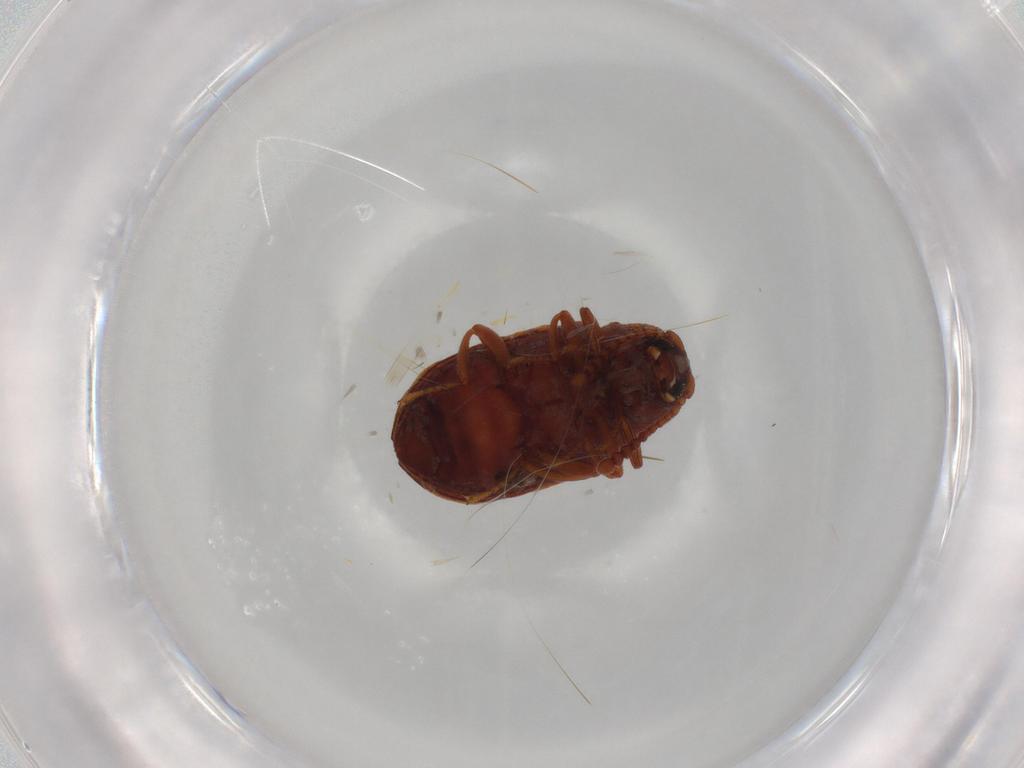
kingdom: Animalia
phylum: Arthropoda
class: Insecta
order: Coleoptera
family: Tenebrionidae
